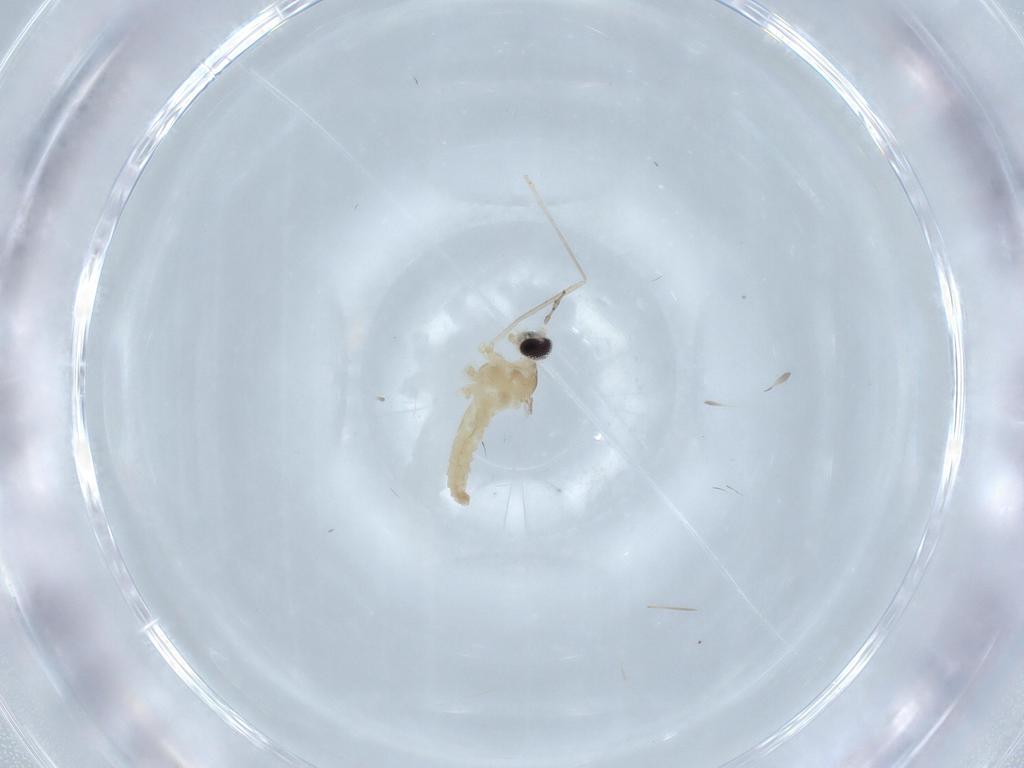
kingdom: Animalia
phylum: Arthropoda
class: Insecta
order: Diptera
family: Cecidomyiidae
